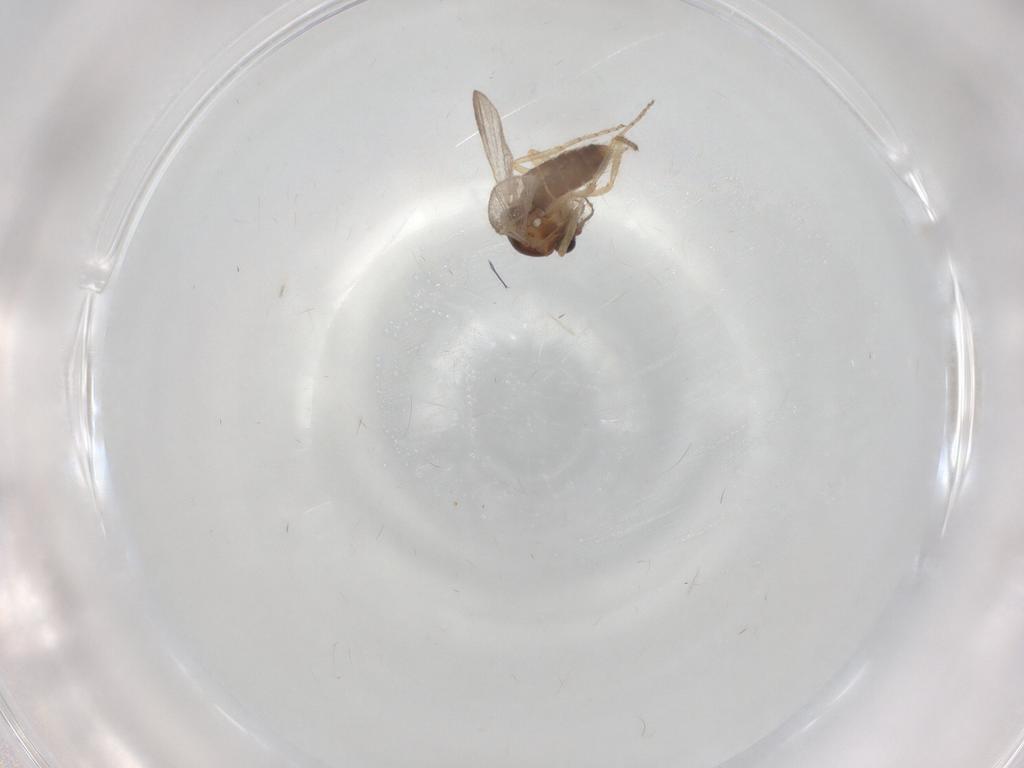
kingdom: Animalia
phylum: Arthropoda
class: Insecta
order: Diptera
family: Ceratopogonidae
